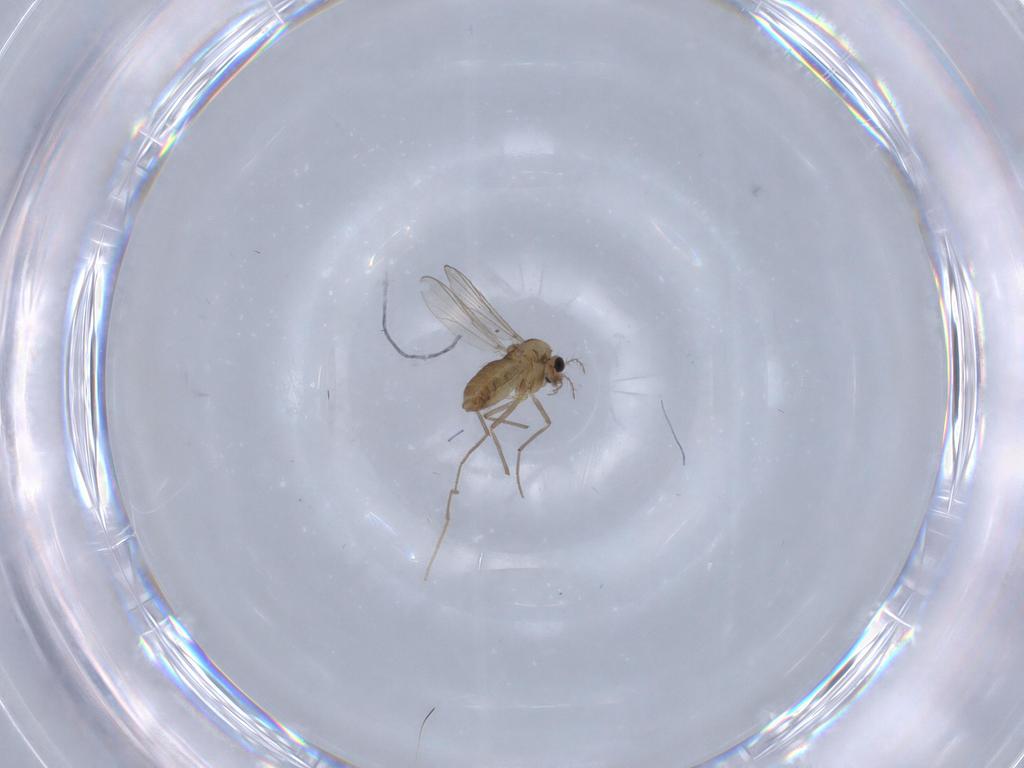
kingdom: Animalia
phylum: Arthropoda
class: Insecta
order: Diptera
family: Chironomidae
